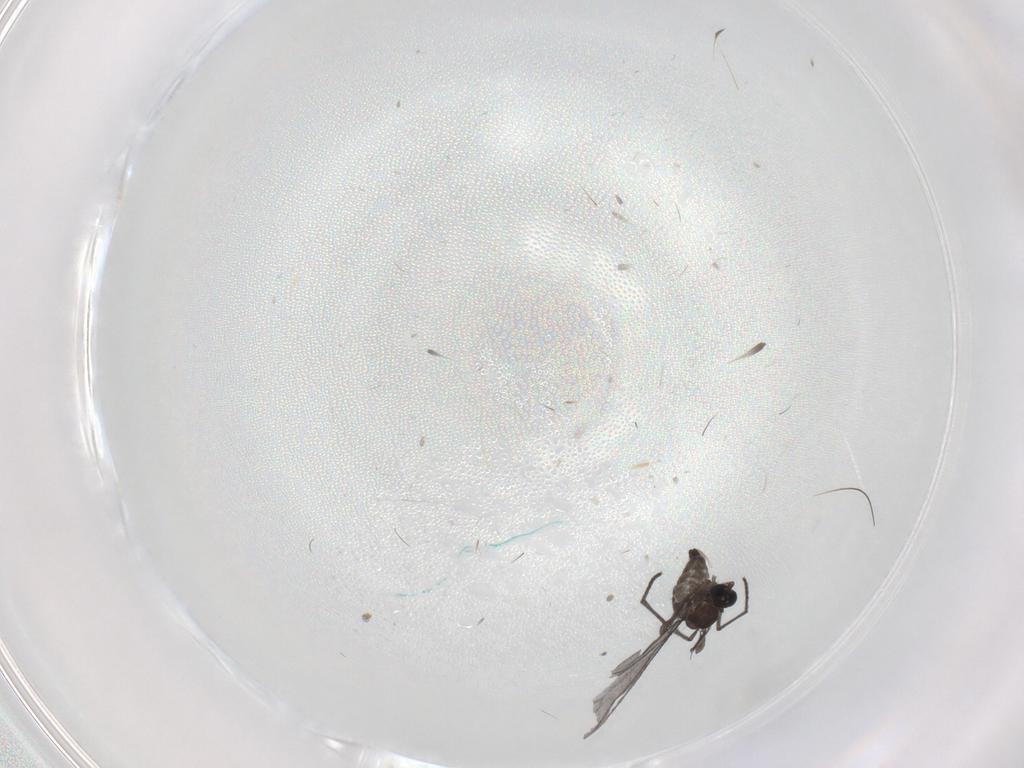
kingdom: Animalia
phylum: Arthropoda
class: Insecta
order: Diptera
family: Sciaridae
